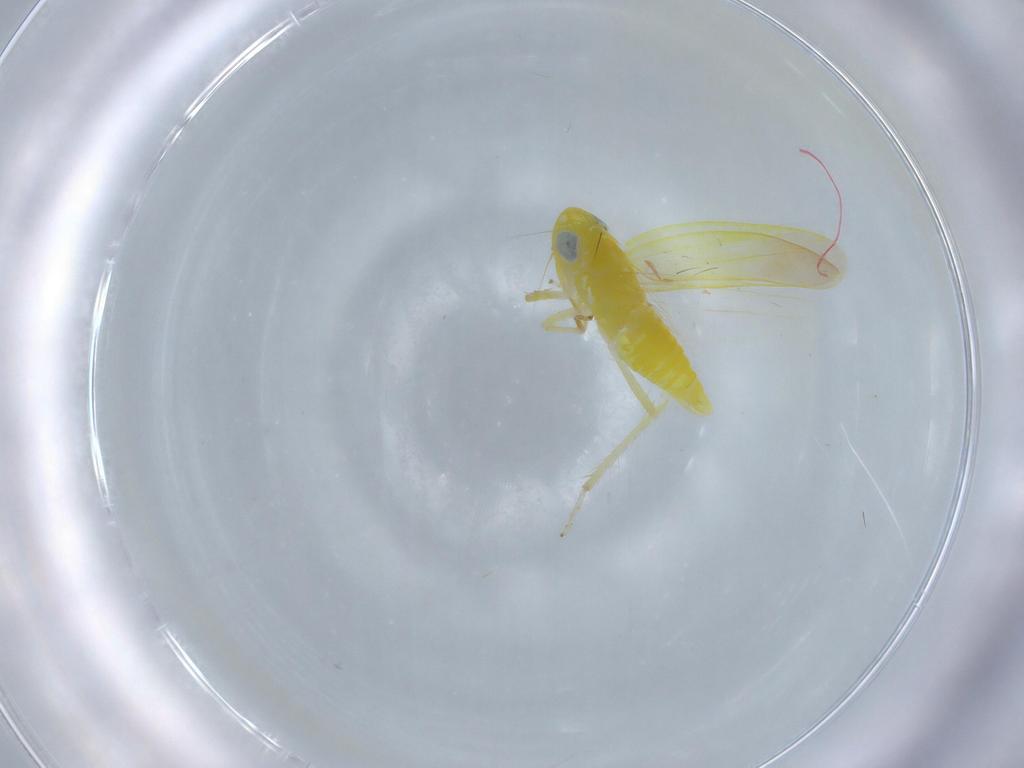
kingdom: Animalia
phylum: Arthropoda
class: Insecta
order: Hemiptera
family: Cicadellidae
